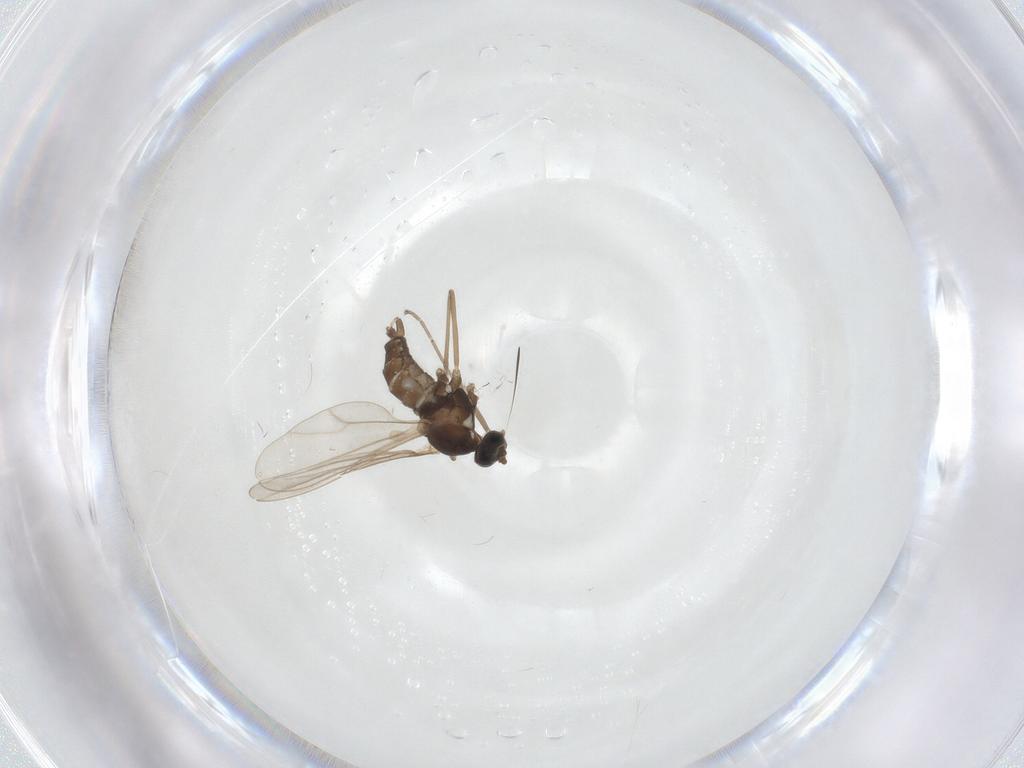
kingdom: Animalia
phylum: Arthropoda
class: Insecta
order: Diptera
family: Cecidomyiidae
